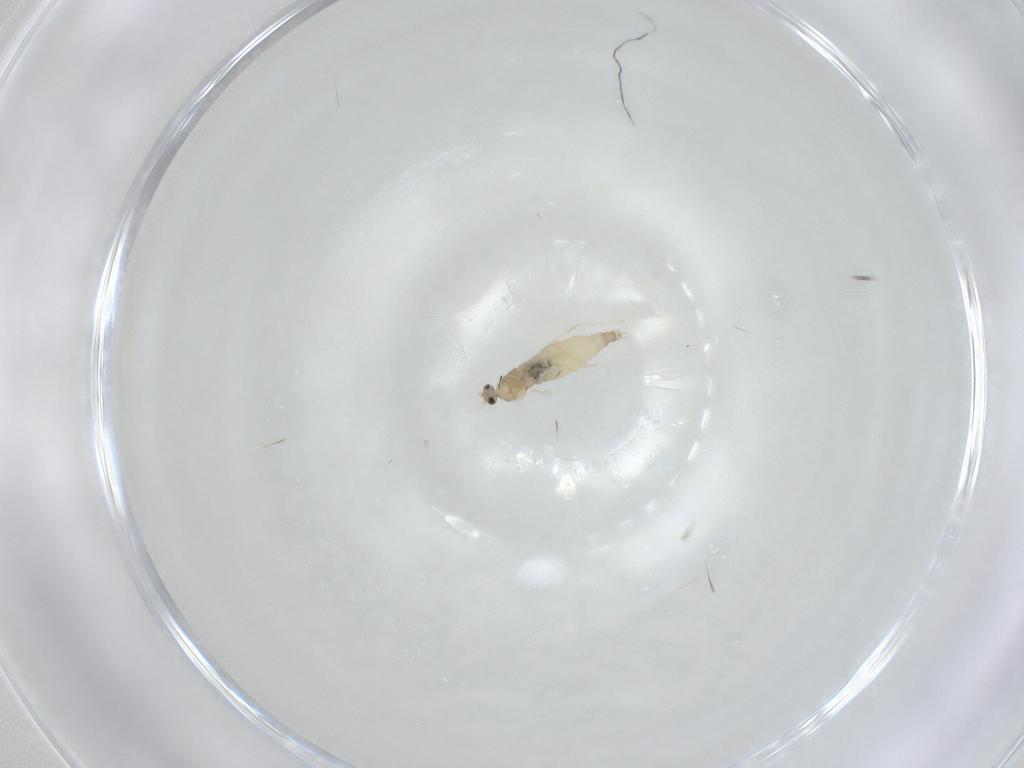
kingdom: Animalia
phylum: Arthropoda
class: Insecta
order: Diptera
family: Cecidomyiidae
